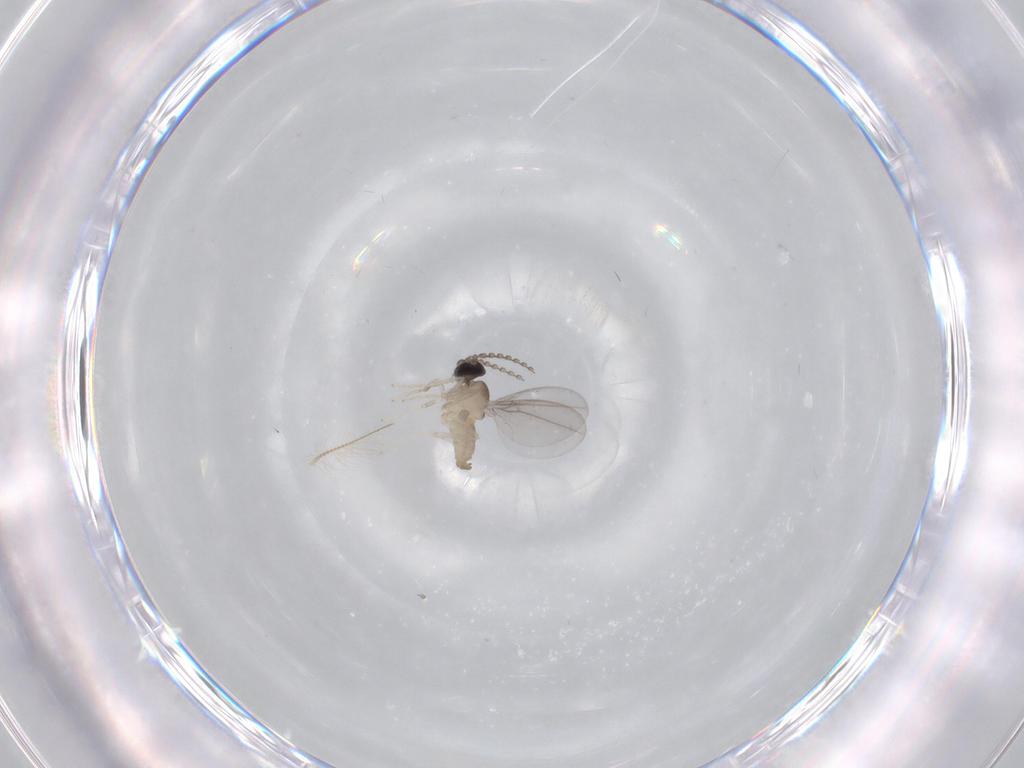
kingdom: Animalia
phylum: Arthropoda
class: Insecta
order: Diptera
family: Chironomidae
